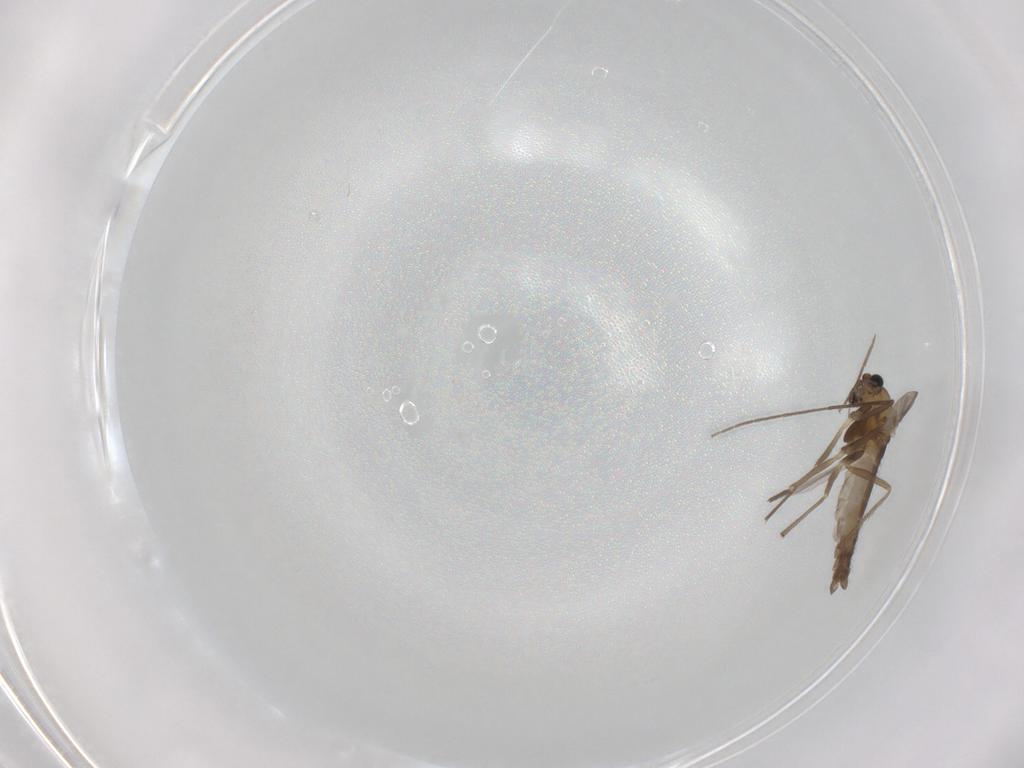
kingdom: Animalia
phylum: Arthropoda
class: Insecta
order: Diptera
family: Chironomidae
